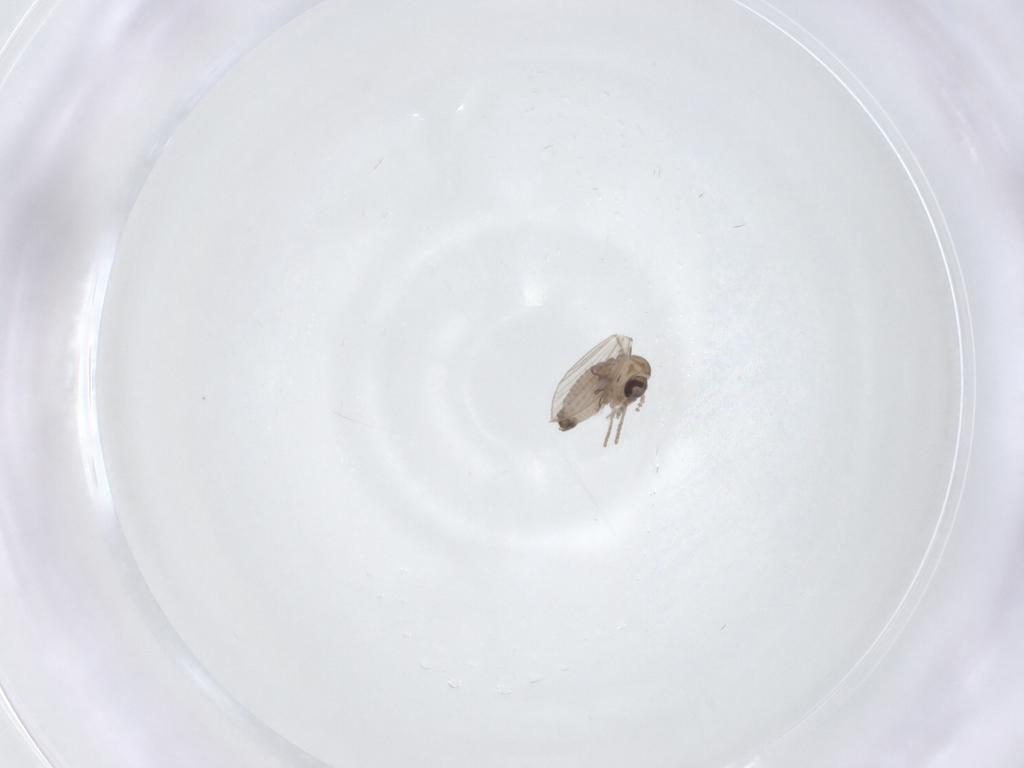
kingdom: Animalia
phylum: Arthropoda
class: Insecta
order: Diptera
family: Psychodidae
